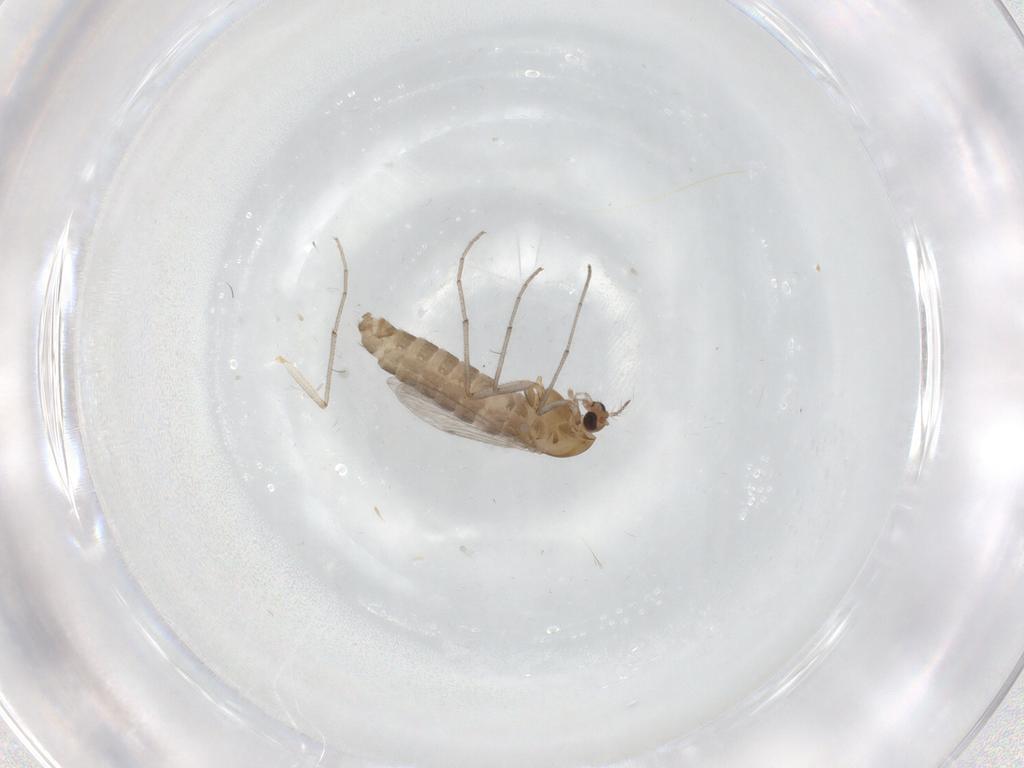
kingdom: Animalia
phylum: Arthropoda
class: Insecta
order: Diptera
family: Chironomidae
